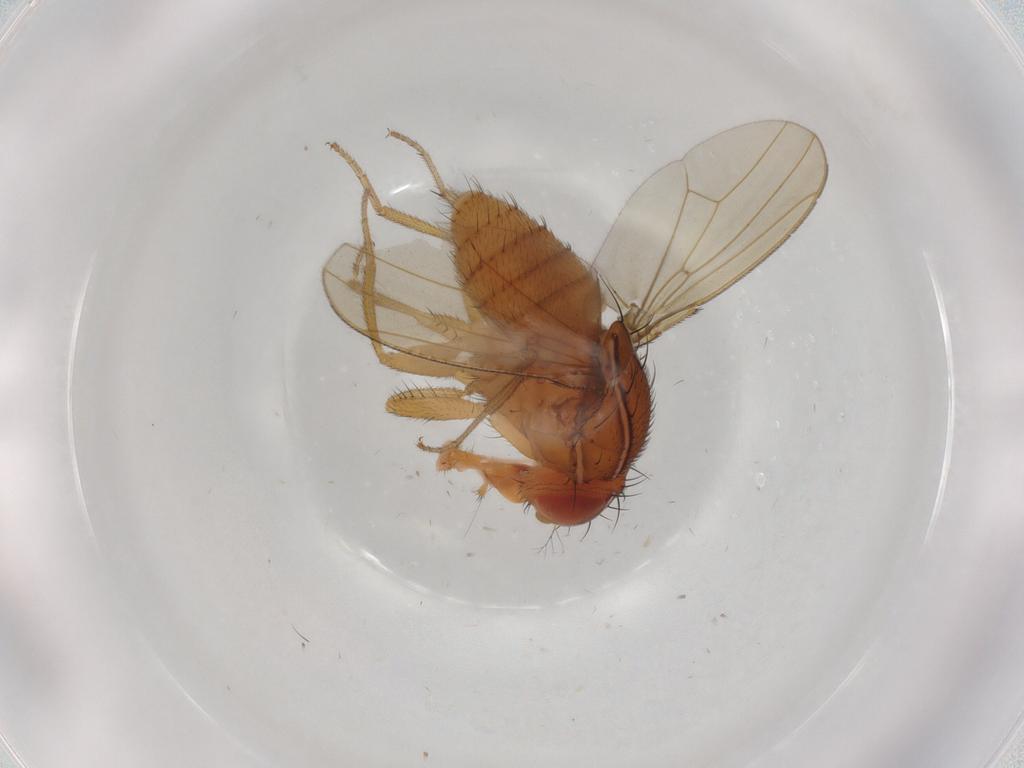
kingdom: Animalia
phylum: Arthropoda
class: Insecta
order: Diptera
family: Drosophilidae
